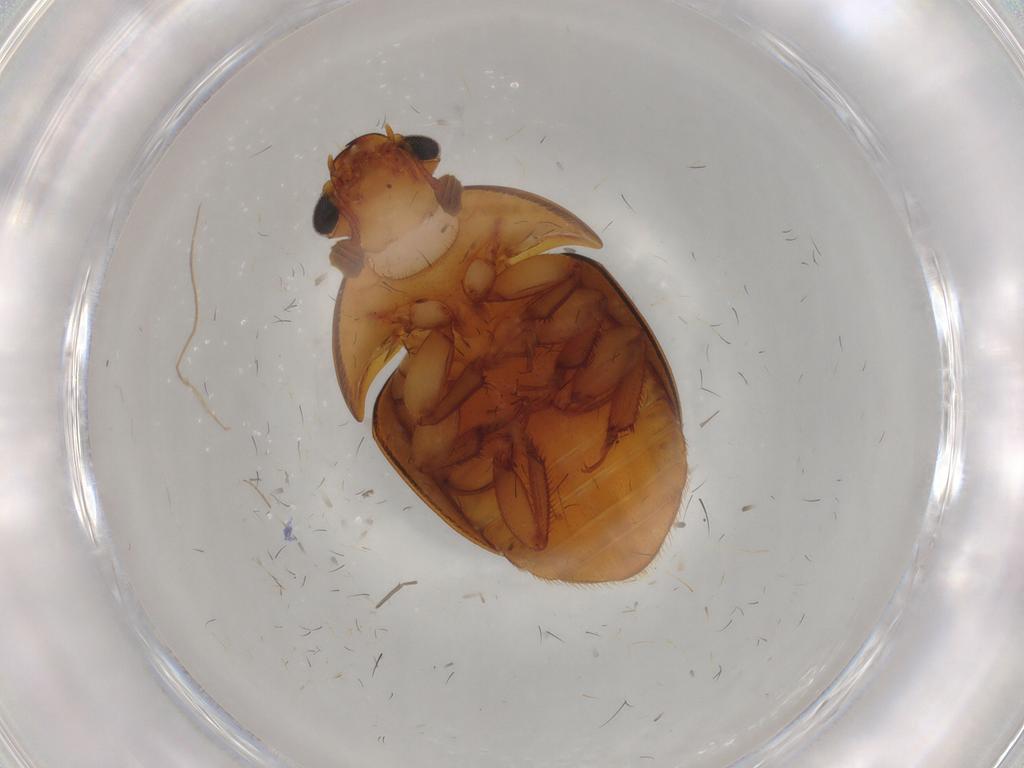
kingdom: Animalia
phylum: Arthropoda
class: Insecta
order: Coleoptera
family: Nitidulidae
